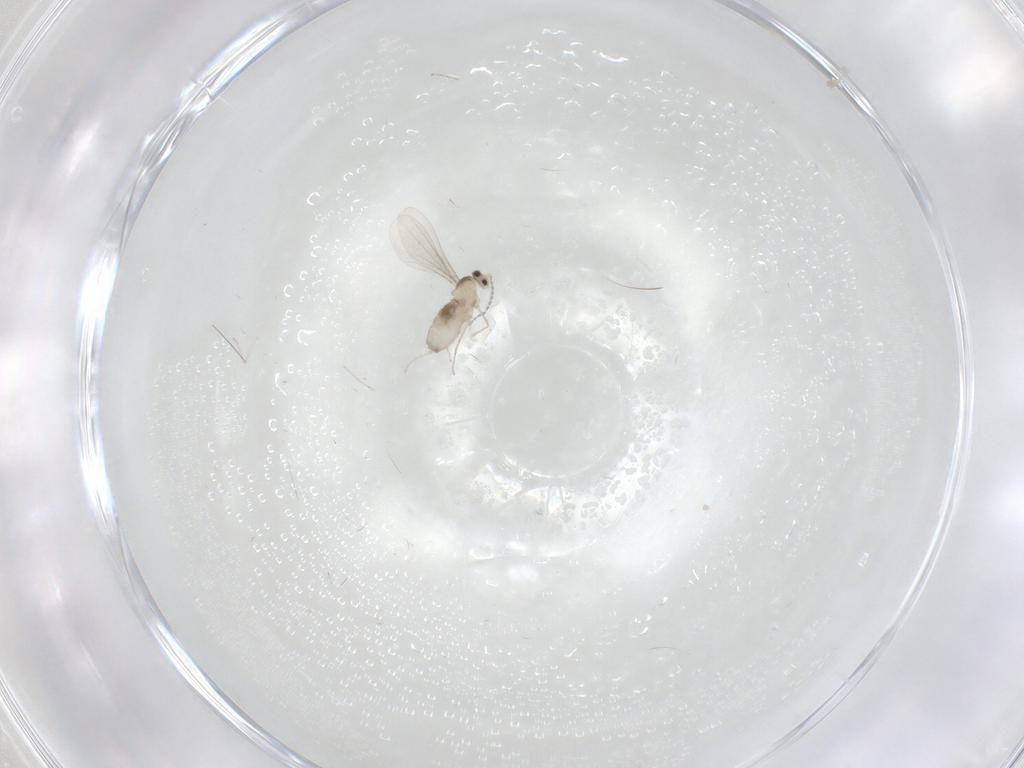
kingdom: Animalia
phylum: Arthropoda
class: Insecta
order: Diptera
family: Cecidomyiidae
